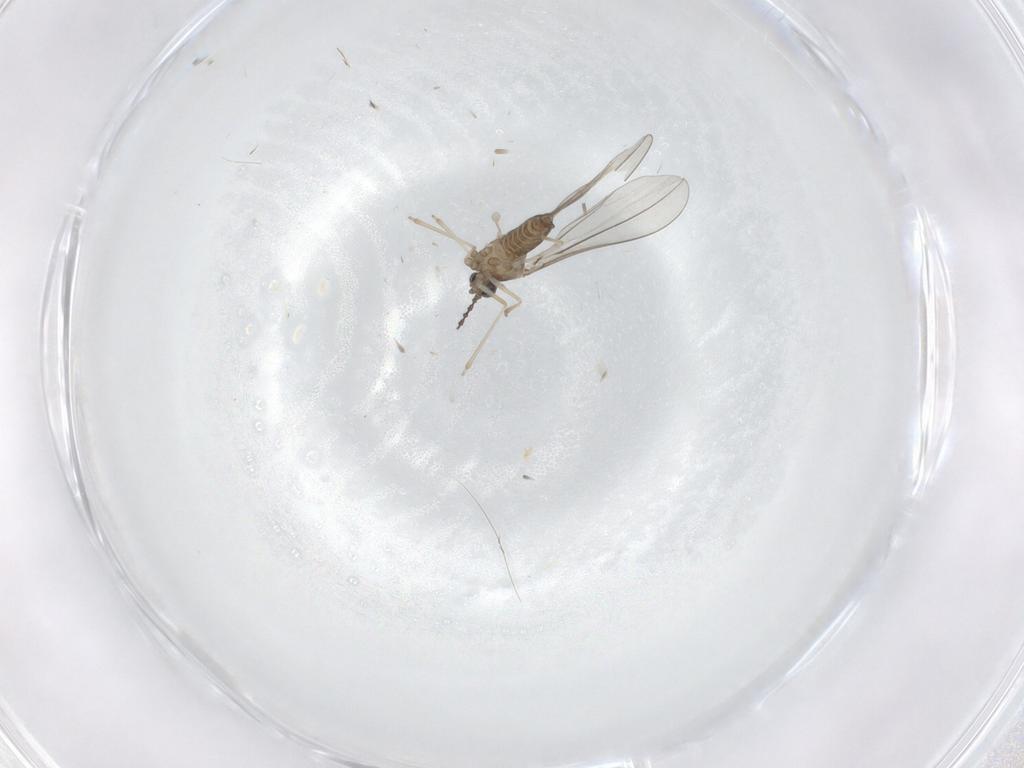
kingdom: Animalia
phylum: Arthropoda
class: Insecta
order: Diptera
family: Cecidomyiidae
